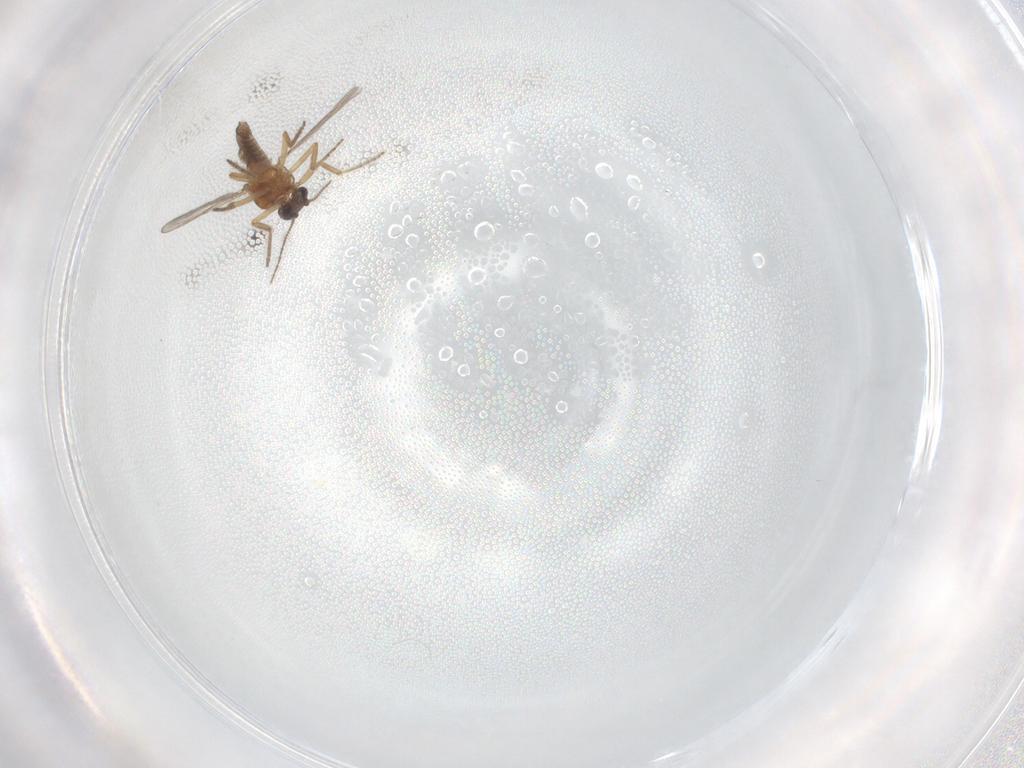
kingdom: Animalia
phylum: Arthropoda
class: Insecta
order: Diptera
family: Ceratopogonidae
